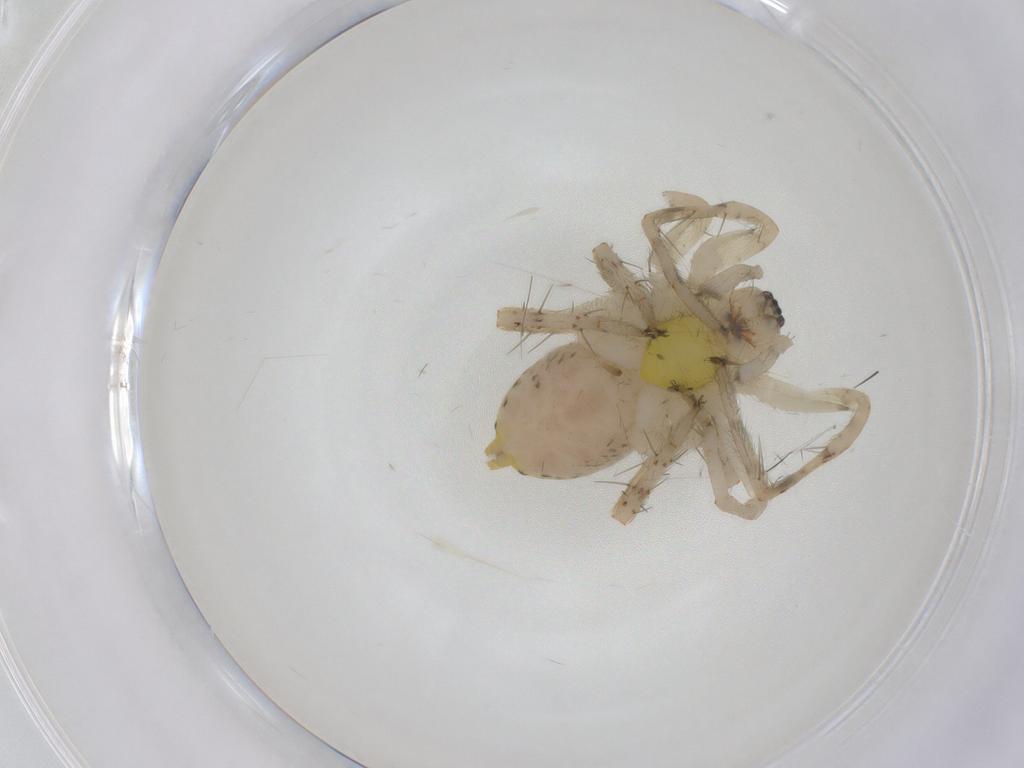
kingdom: Animalia
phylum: Arthropoda
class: Arachnida
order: Araneae
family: Anyphaenidae
